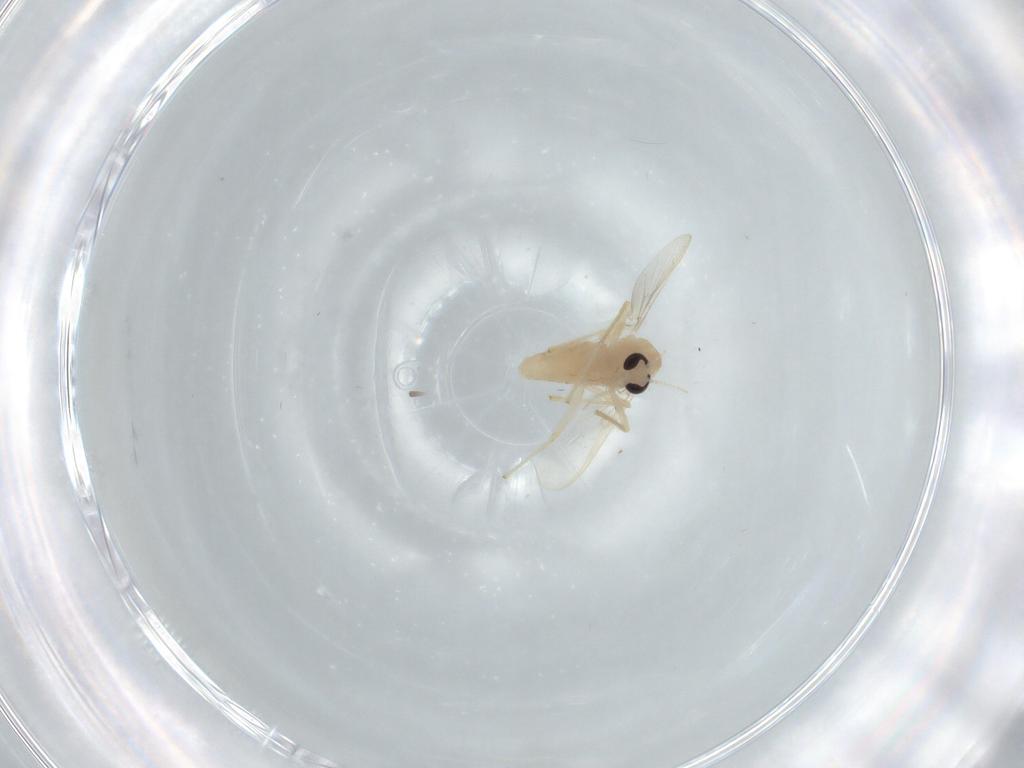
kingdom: Animalia
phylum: Arthropoda
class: Insecta
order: Diptera
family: Chironomidae
